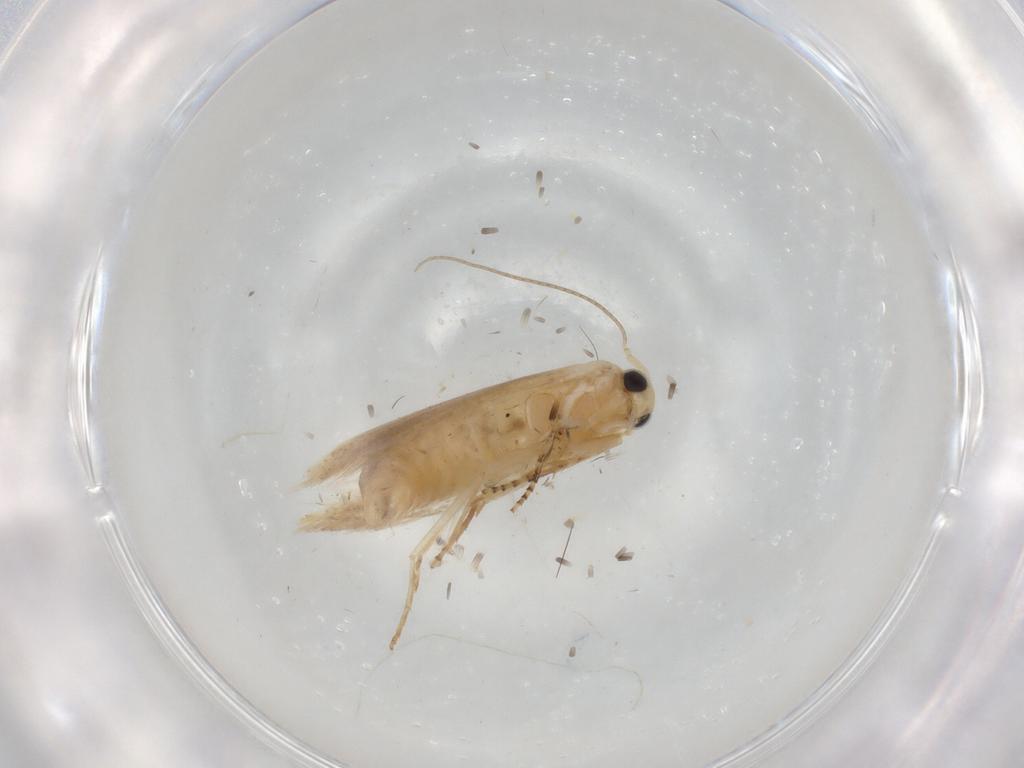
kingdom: Animalia
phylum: Arthropoda
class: Insecta
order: Lepidoptera
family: Bucculatricidae
